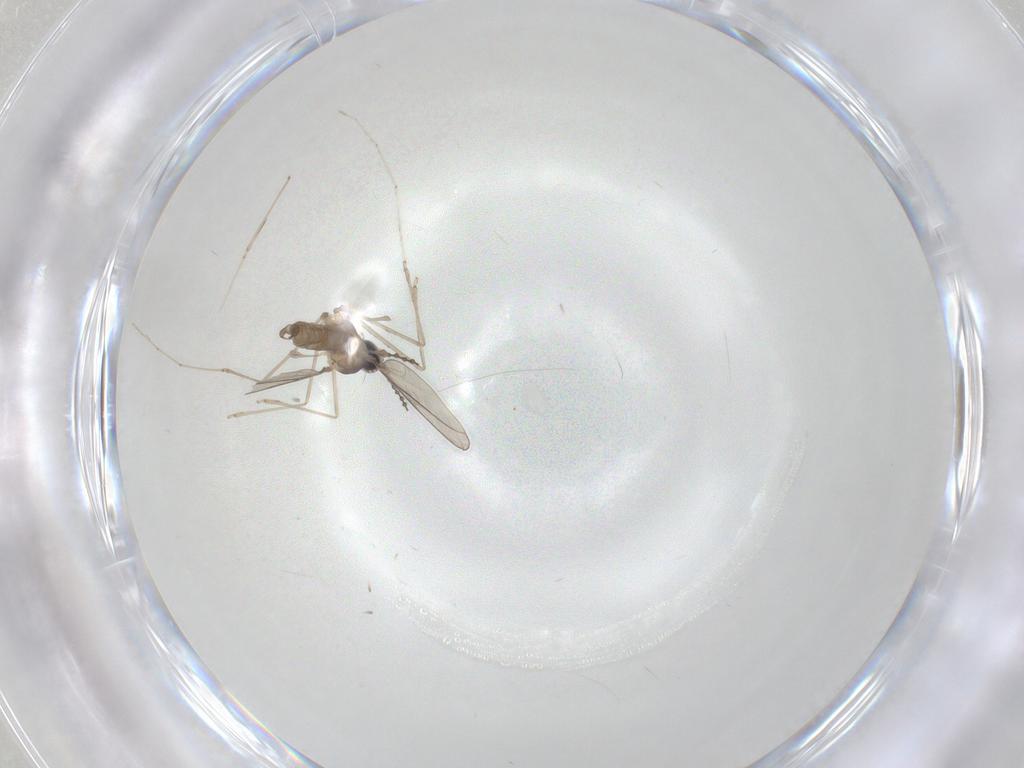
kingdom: Animalia
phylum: Arthropoda
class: Insecta
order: Diptera
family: Cecidomyiidae
